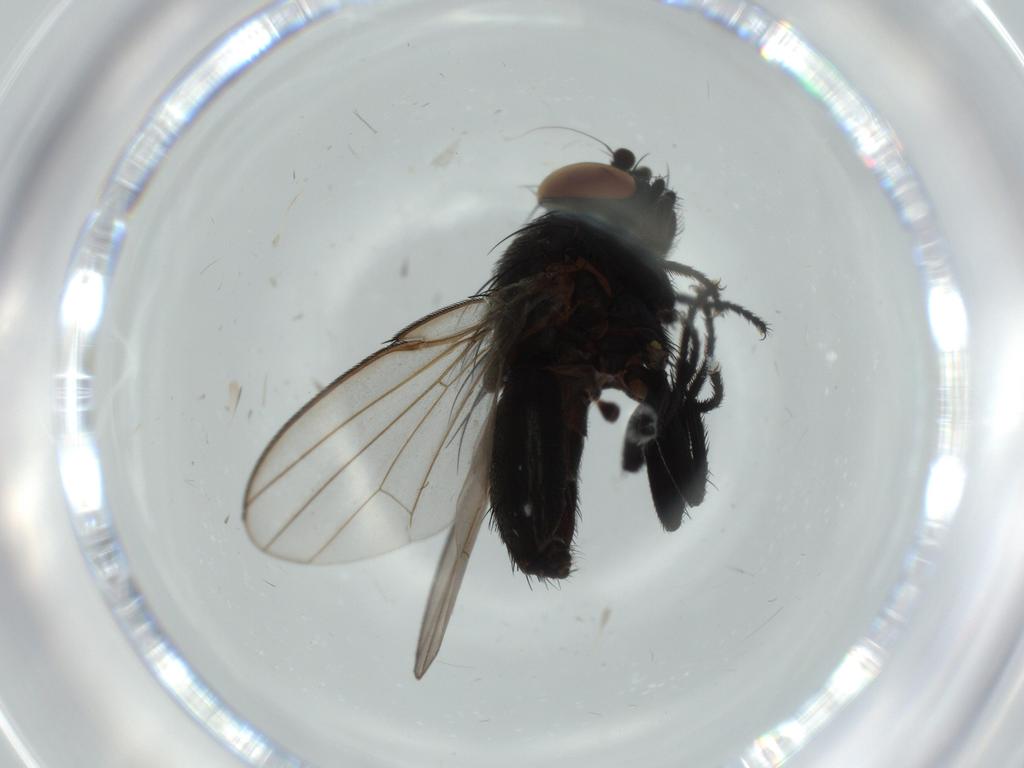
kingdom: Animalia
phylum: Arthropoda
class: Insecta
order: Diptera
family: Milichiidae
